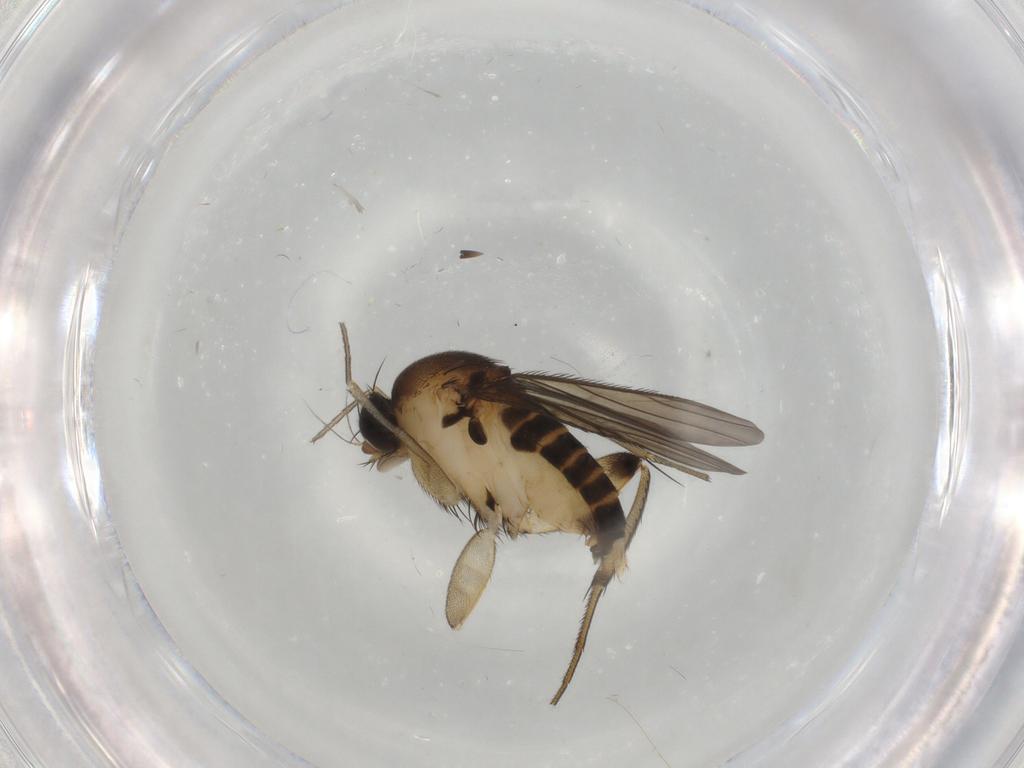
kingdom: Animalia
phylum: Arthropoda
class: Insecta
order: Diptera
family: Phoridae
